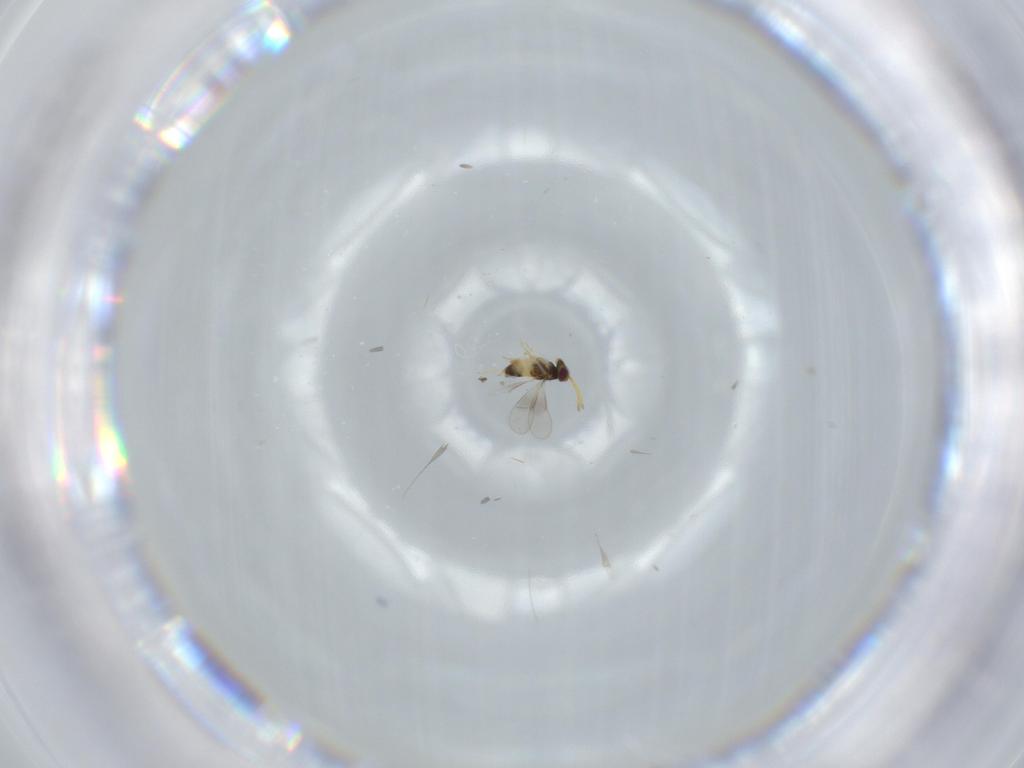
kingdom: Animalia
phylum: Arthropoda
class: Insecta
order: Hymenoptera
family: Aphelinidae
